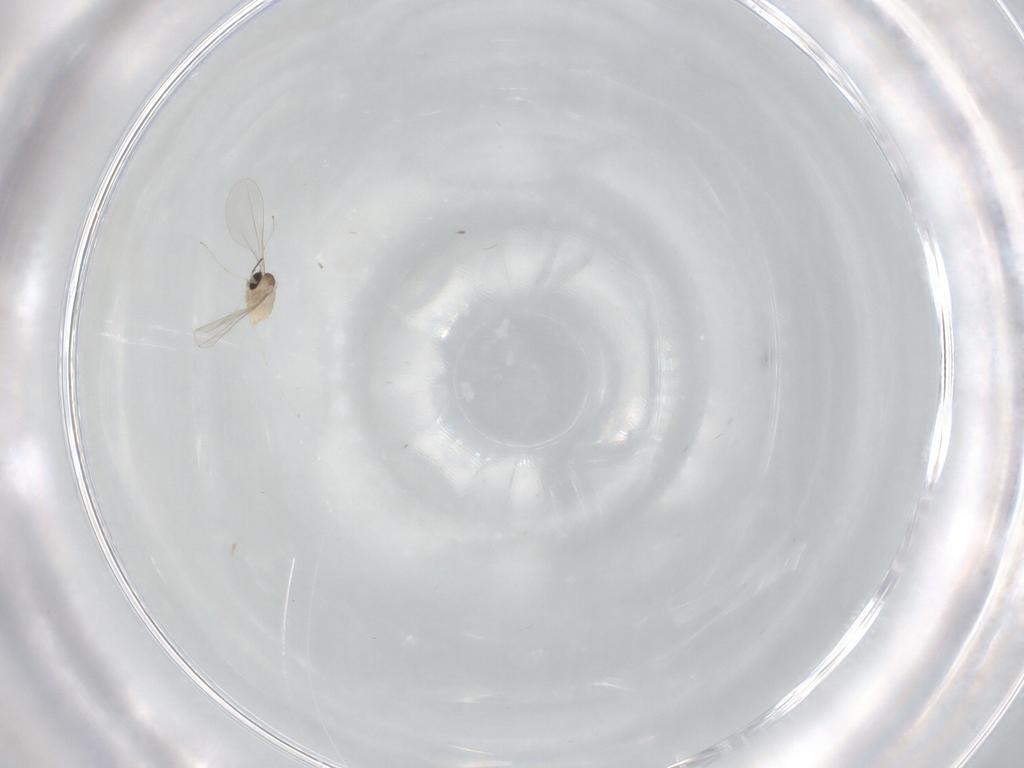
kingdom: Animalia
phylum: Arthropoda
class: Insecta
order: Diptera
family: Cecidomyiidae
